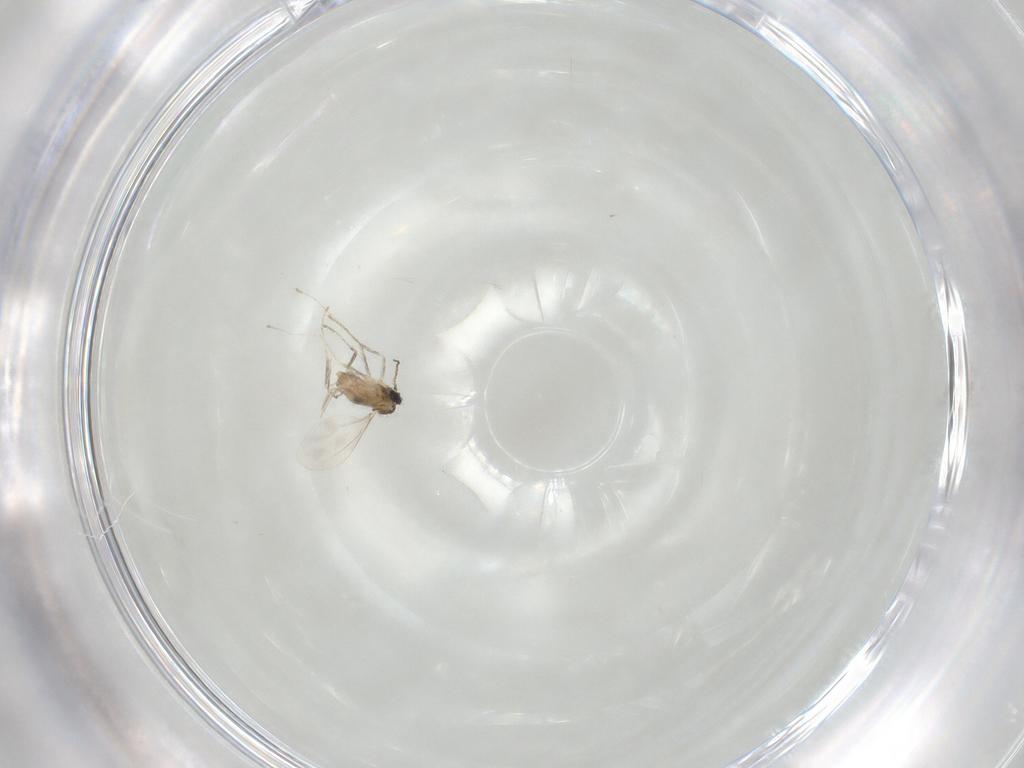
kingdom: Animalia
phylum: Arthropoda
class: Insecta
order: Diptera
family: Cecidomyiidae
